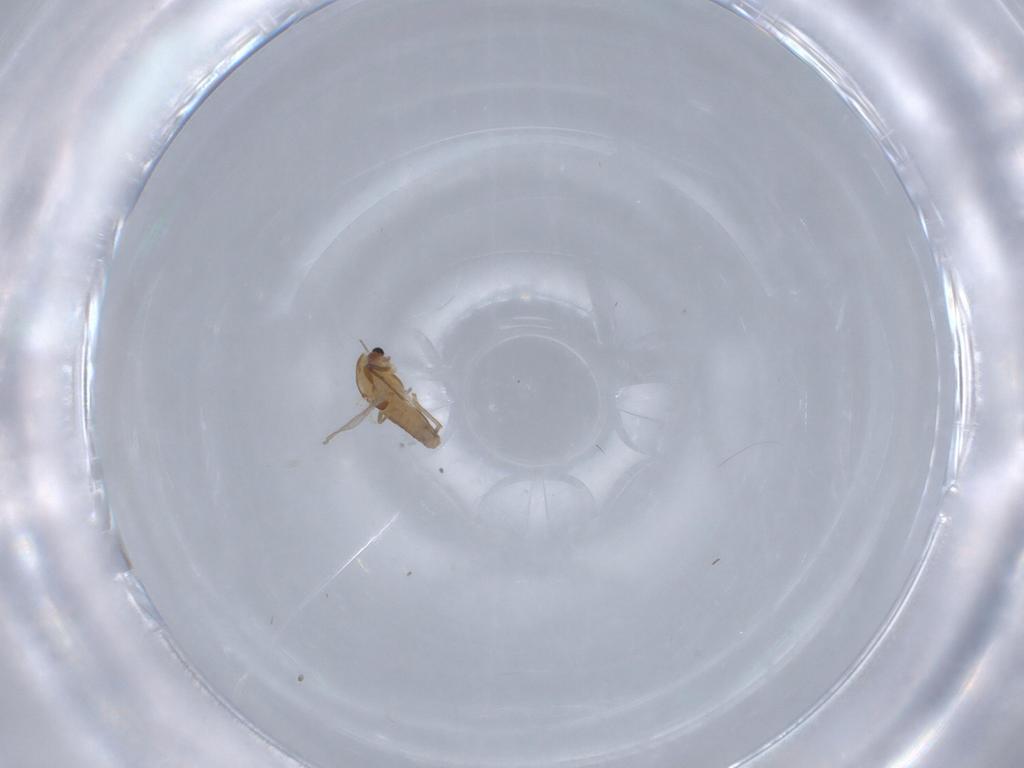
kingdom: Animalia
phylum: Arthropoda
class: Insecta
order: Diptera
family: Chironomidae
